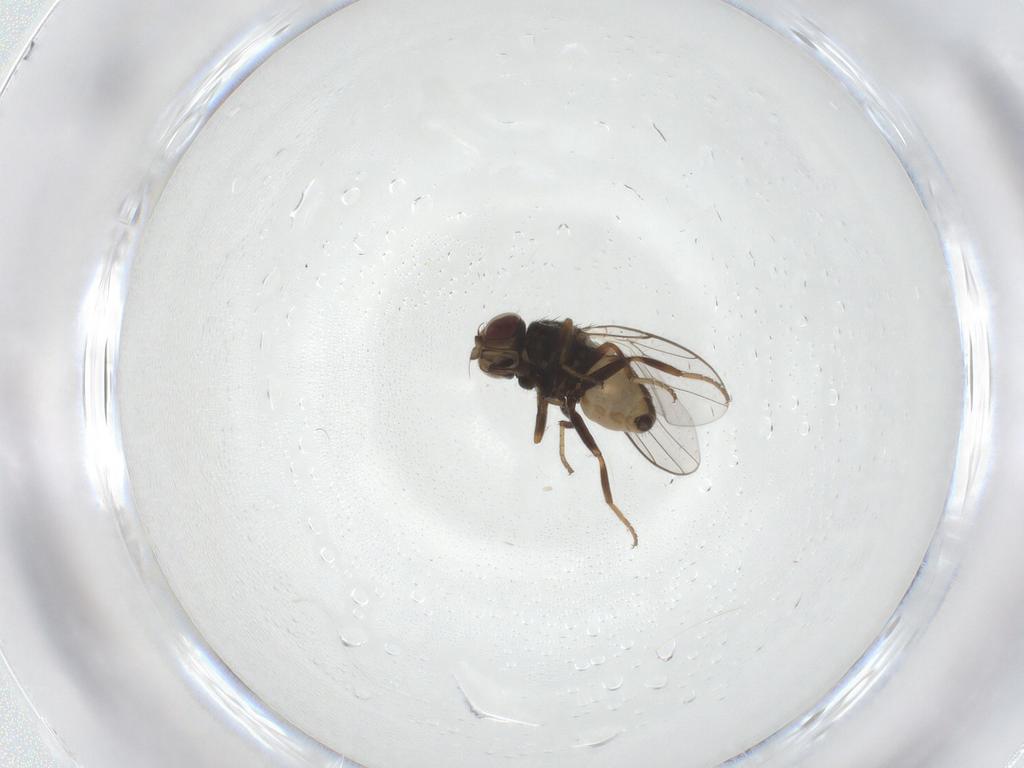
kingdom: Animalia
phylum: Arthropoda
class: Insecta
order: Diptera
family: Chloropidae
